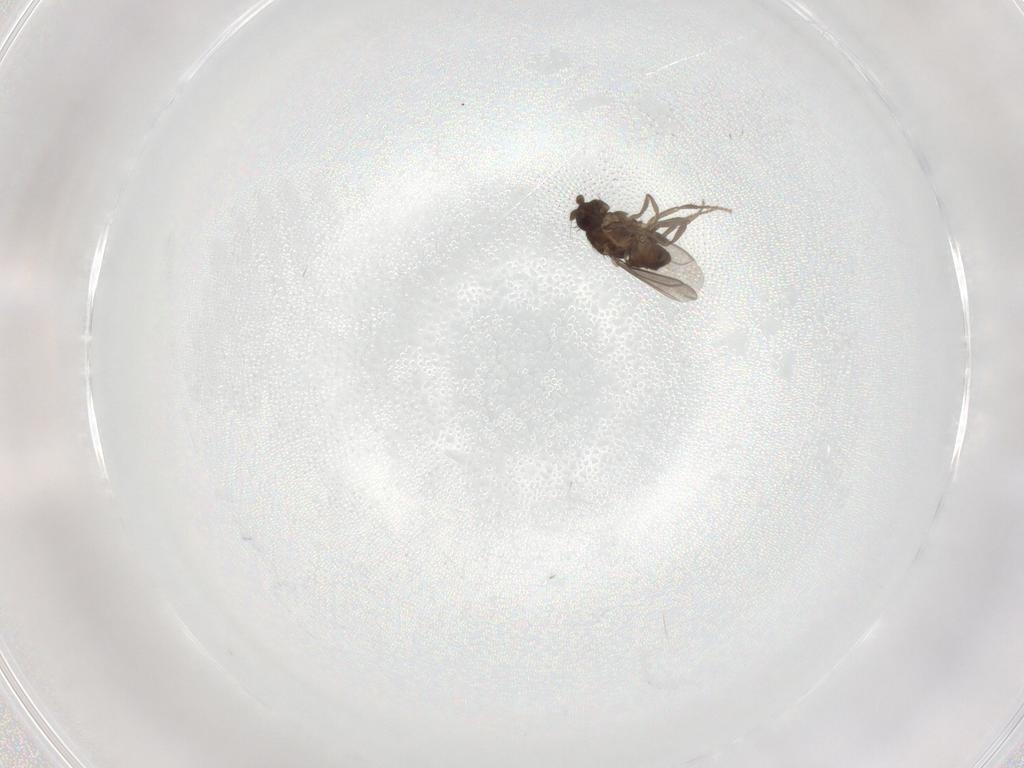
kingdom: Animalia
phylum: Arthropoda
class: Insecta
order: Diptera
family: Sphaeroceridae
